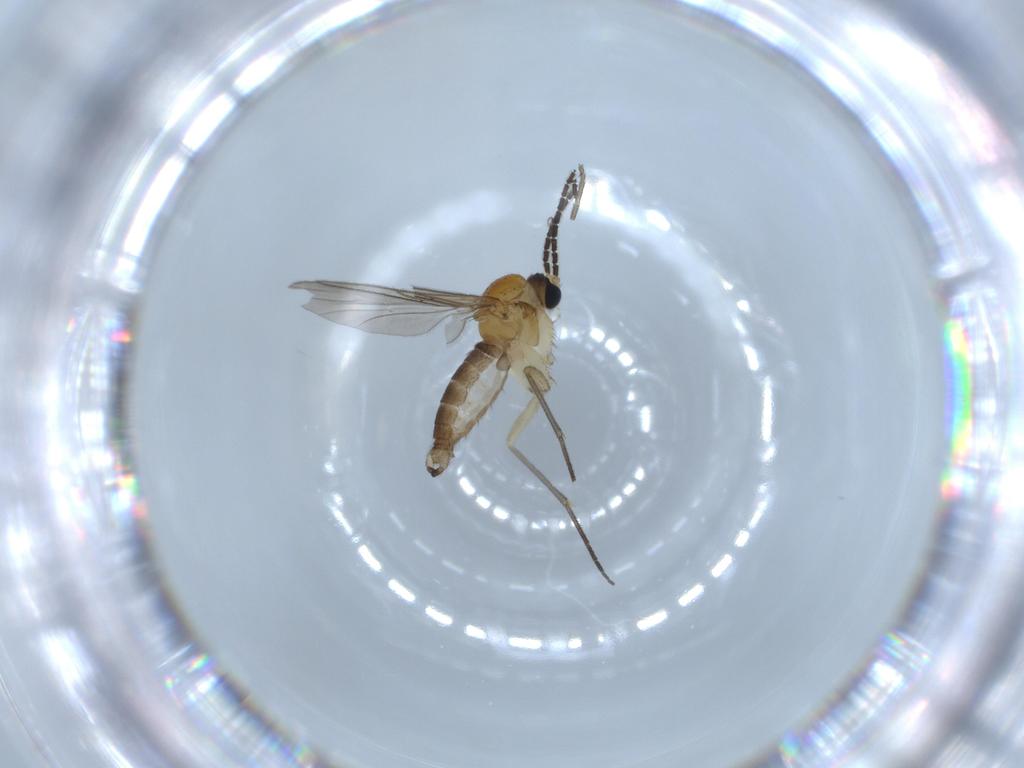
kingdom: Animalia
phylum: Arthropoda
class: Insecta
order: Diptera
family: Sciaridae
